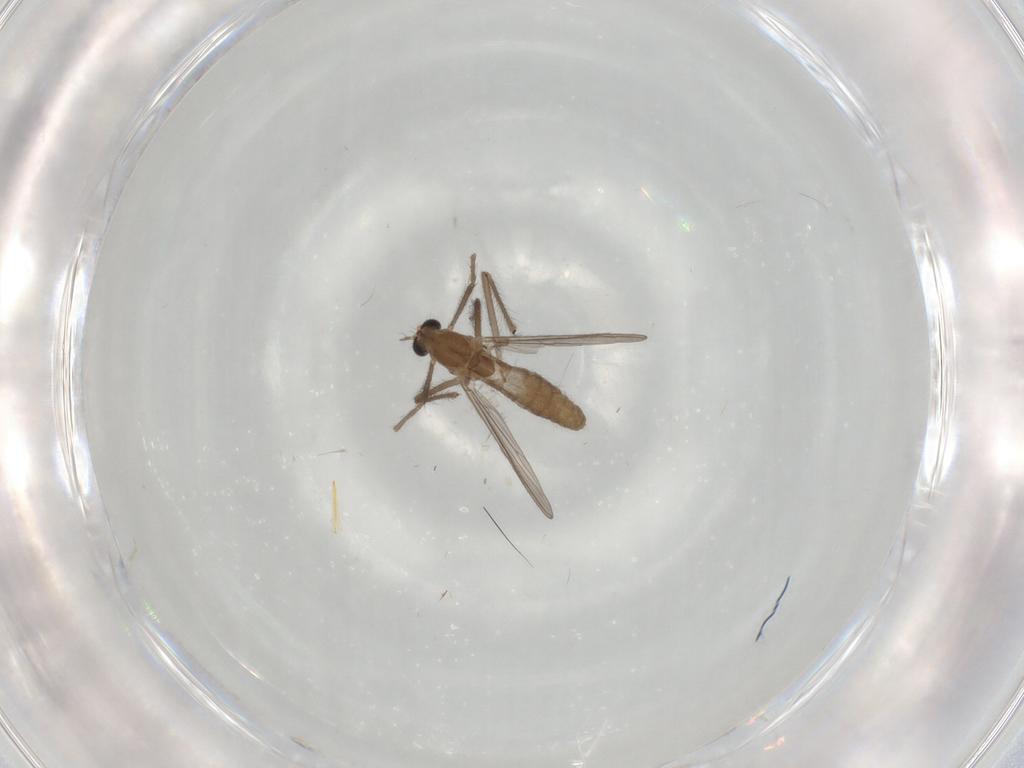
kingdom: Animalia
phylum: Arthropoda
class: Insecta
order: Diptera
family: Chironomidae
